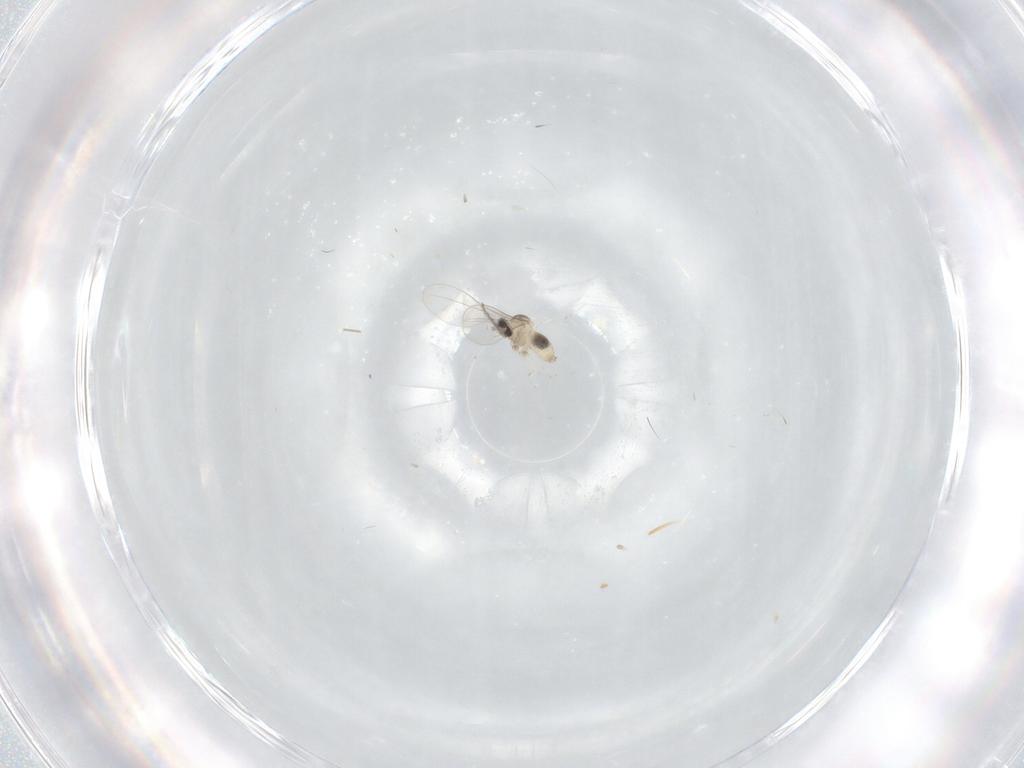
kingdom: Animalia
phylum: Arthropoda
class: Insecta
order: Diptera
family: Cecidomyiidae
